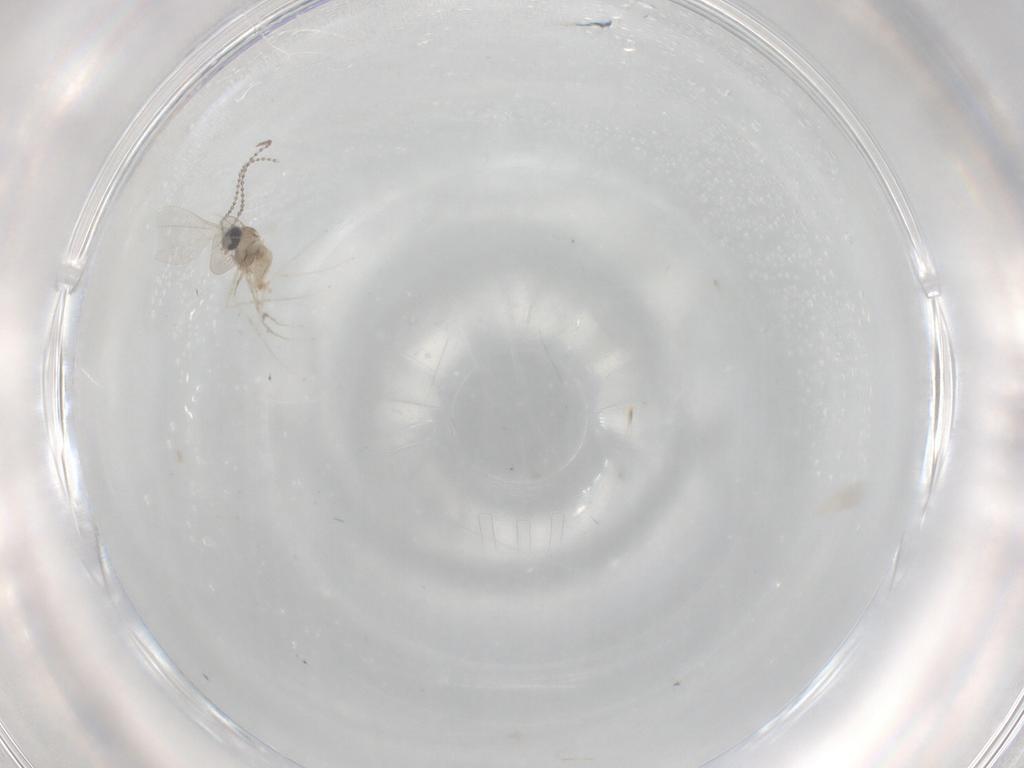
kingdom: Animalia
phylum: Arthropoda
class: Insecta
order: Diptera
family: Cecidomyiidae
